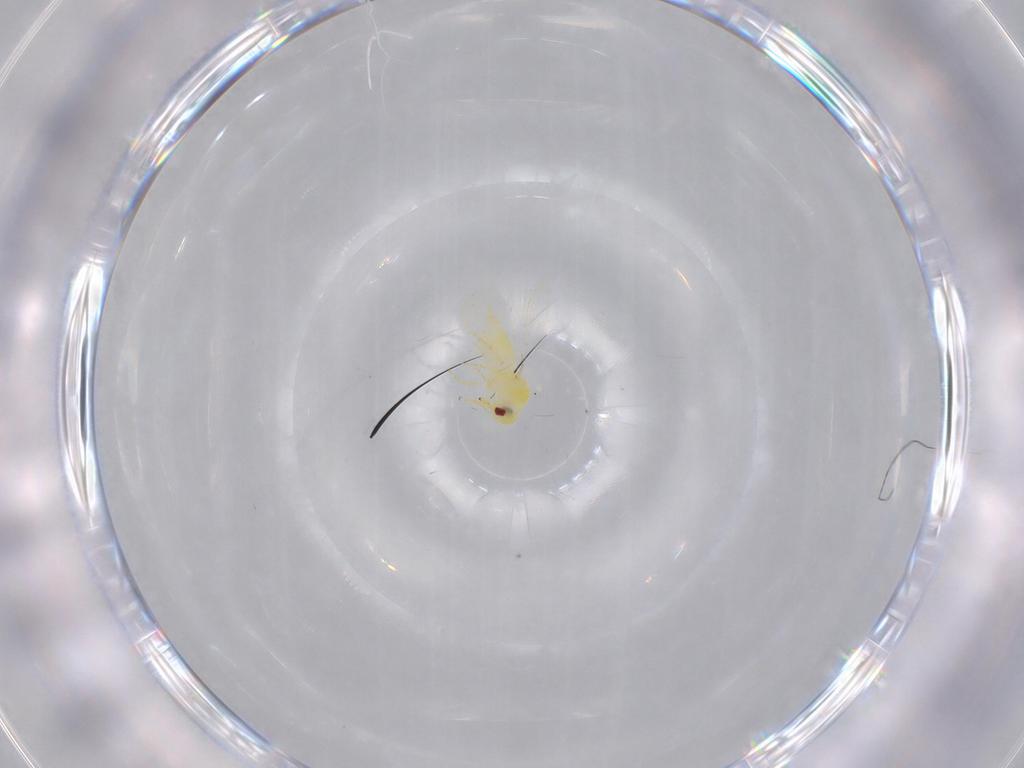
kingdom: Animalia
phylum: Arthropoda
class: Insecta
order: Hemiptera
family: Aleyrodidae
